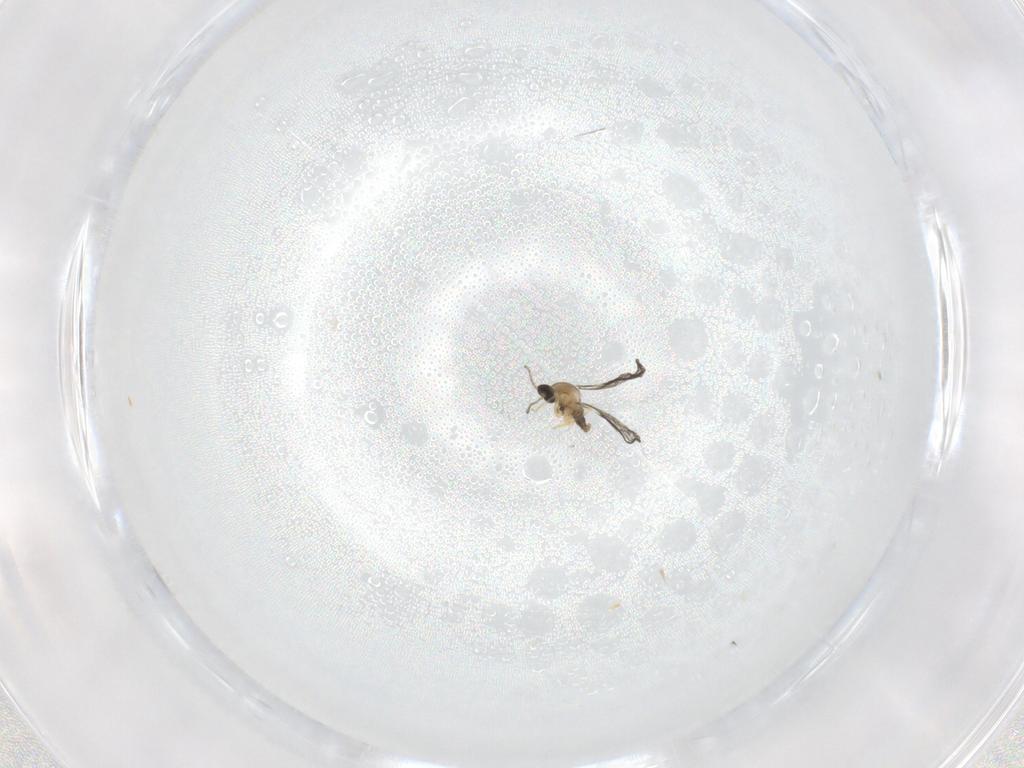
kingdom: Animalia
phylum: Arthropoda
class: Insecta
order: Diptera
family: Cecidomyiidae
